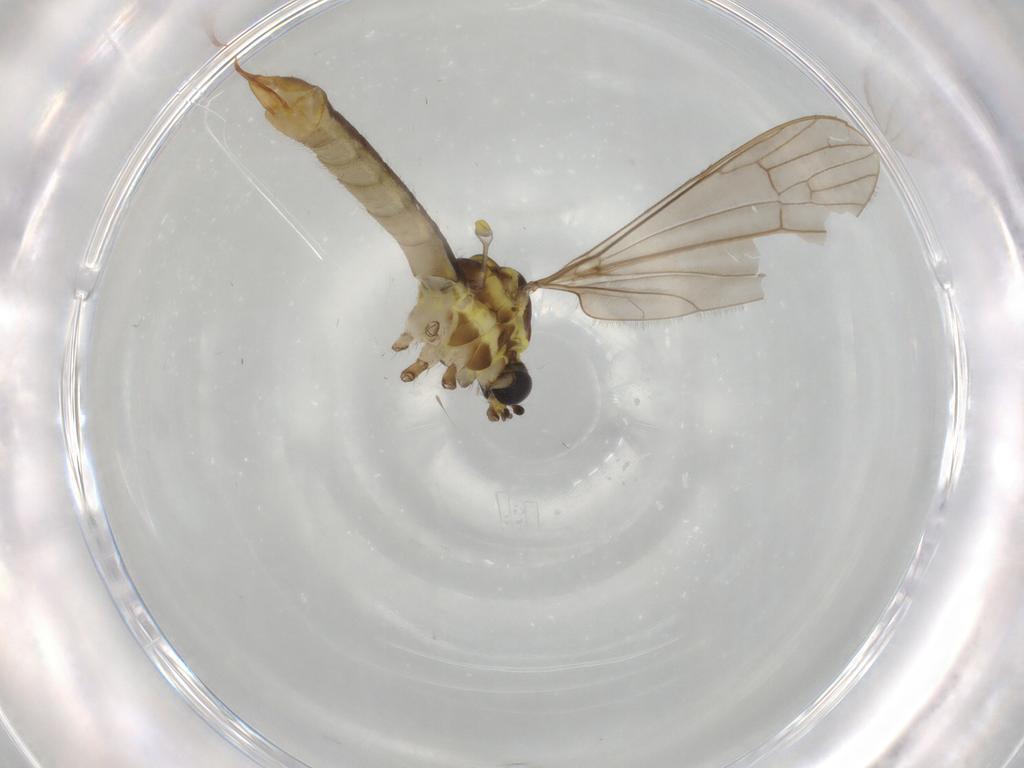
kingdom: Animalia
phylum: Arthropoda
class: Insecta
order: Diptera
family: Limoniidae
